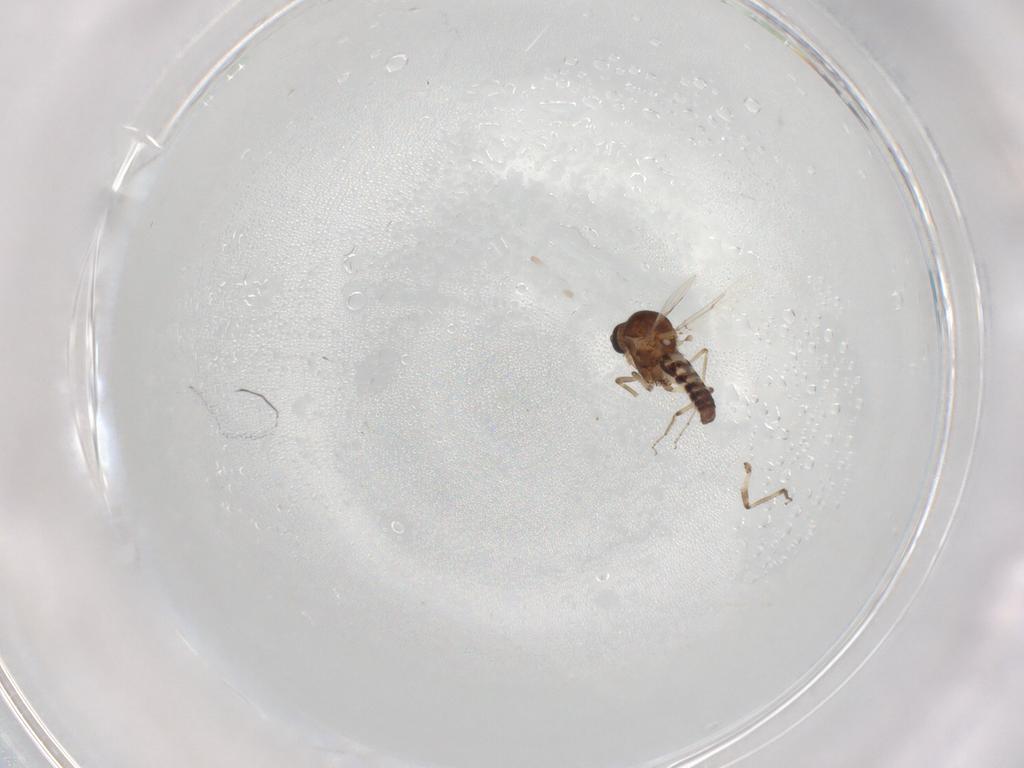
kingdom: Animalia
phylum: Arthropoda
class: Insecta
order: Diptera
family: Ceratopogonidae
